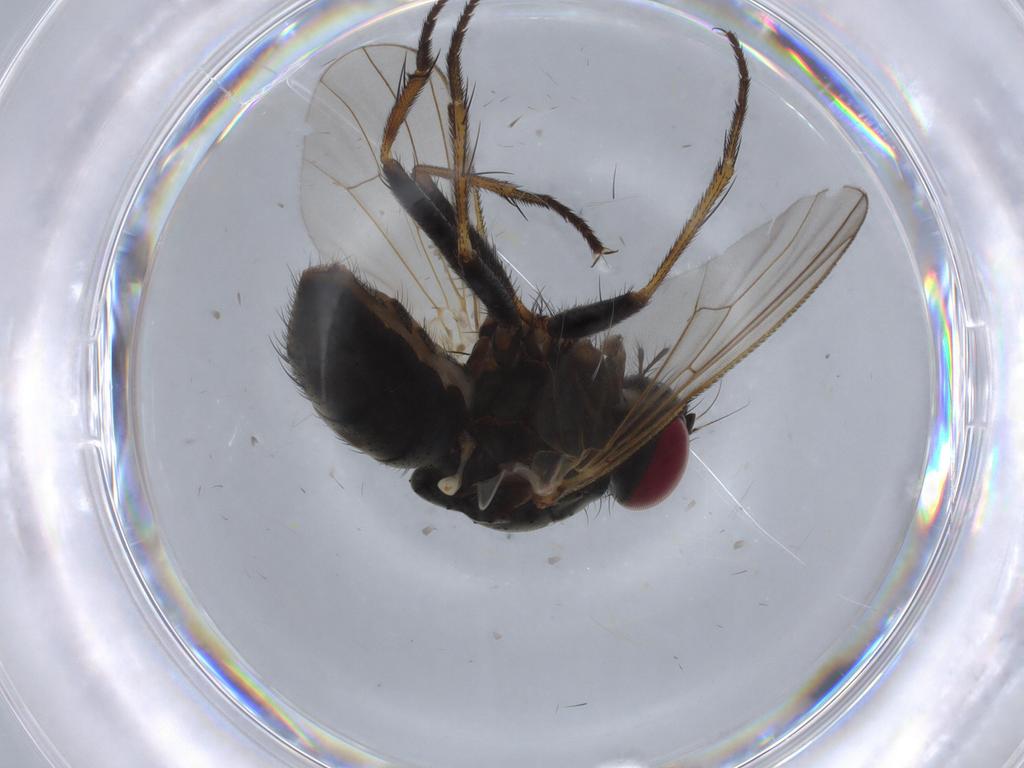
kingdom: Animalia
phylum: Arthropoda
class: Insecta
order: Diptera
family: Muscidae
